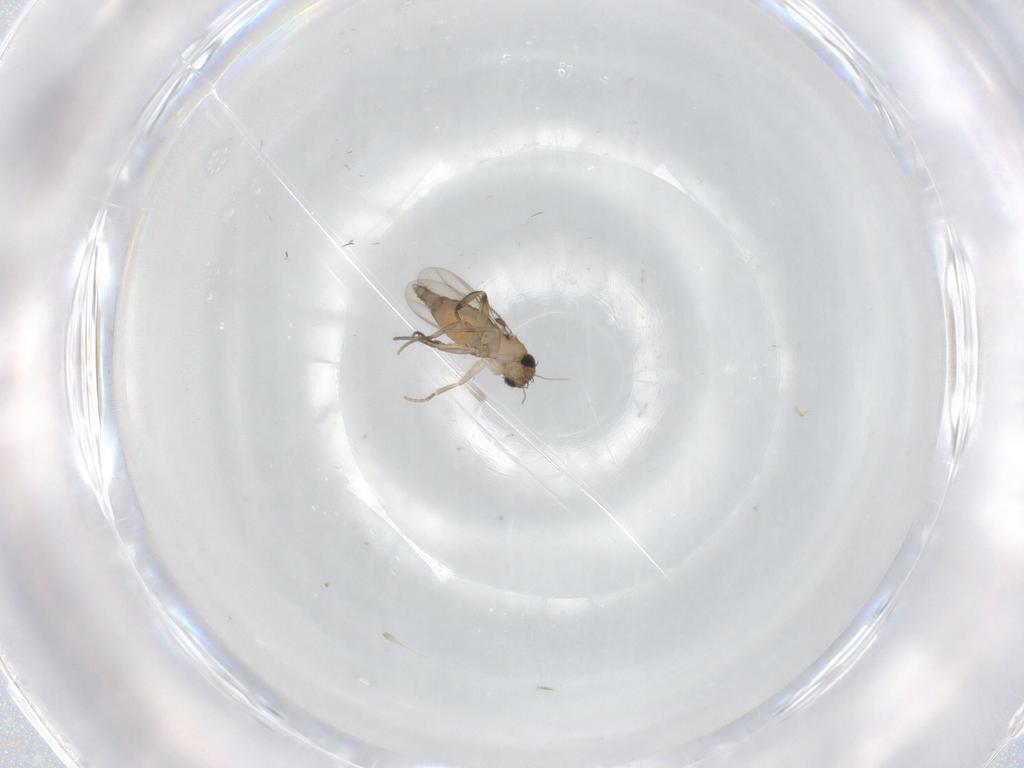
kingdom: Animalia
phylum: Arthropoda
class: Insecta
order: Diptera
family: Phoridae
